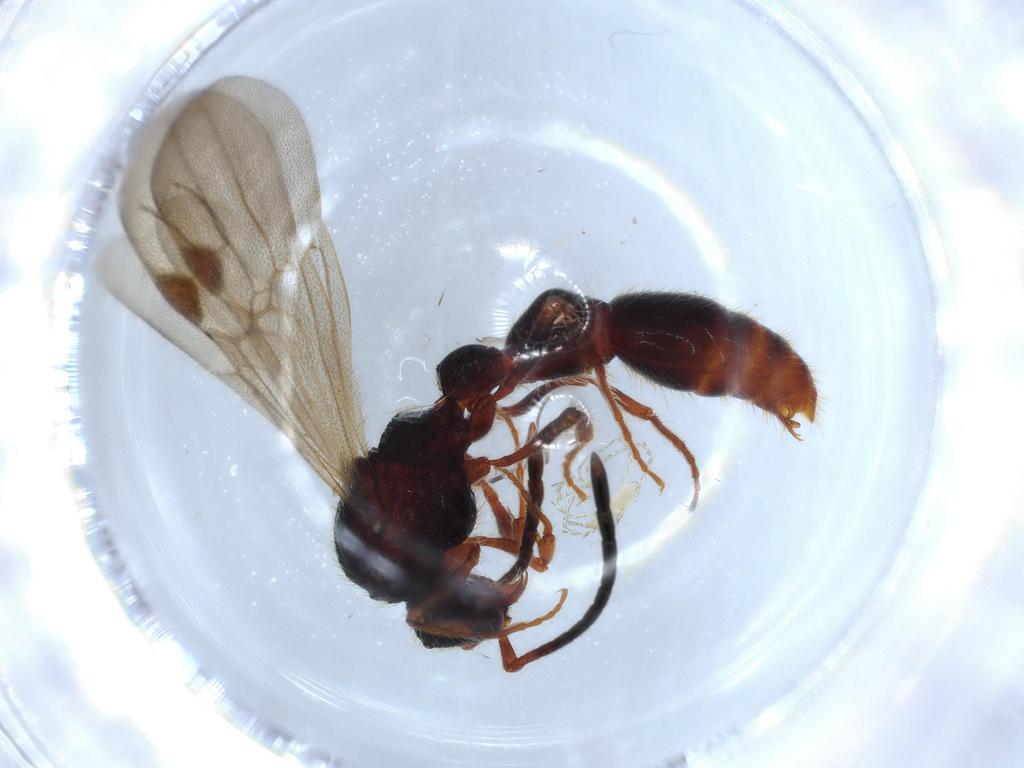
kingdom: Animalia
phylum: Arthropoda
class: Insecta
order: Hymenoptera
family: Formicidae
